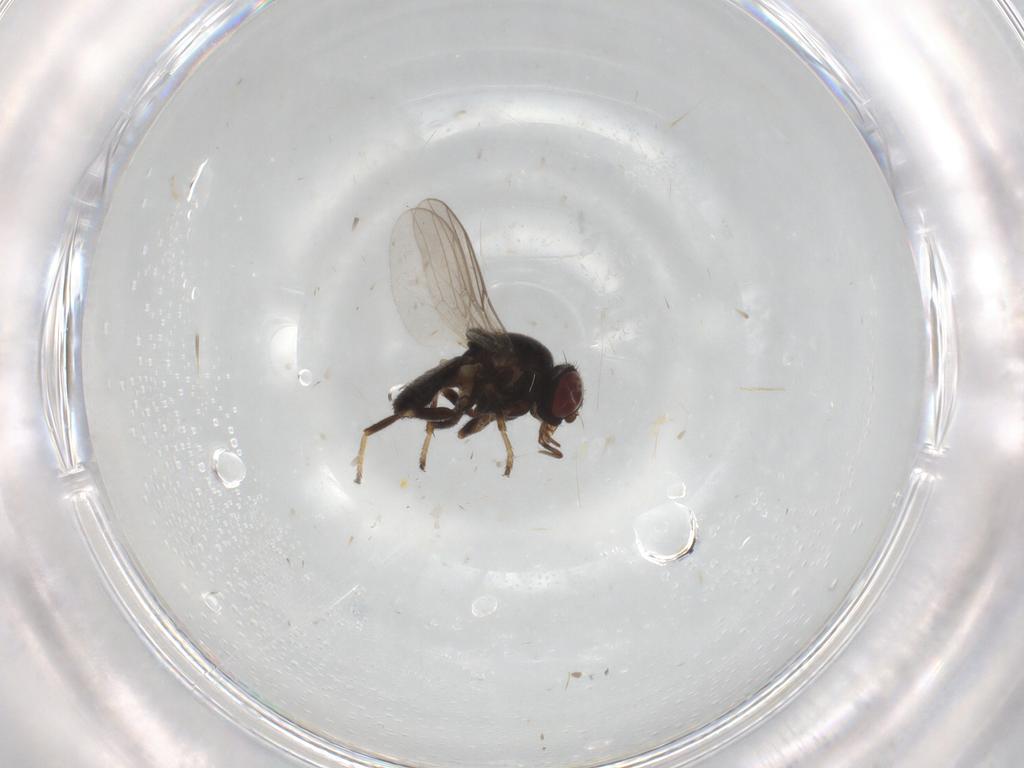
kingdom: Animalia
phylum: Arthropoda
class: Insecta
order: Diptera
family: Chloropidae
